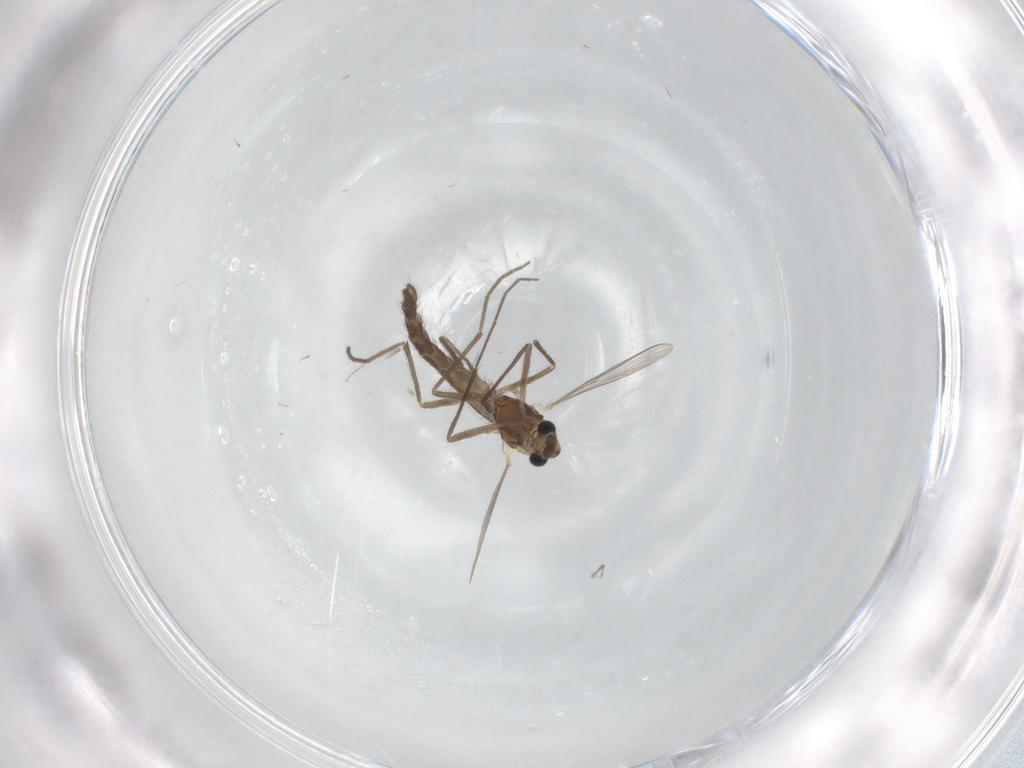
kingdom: Animalia
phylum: Arthropoda
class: Insecta
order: Diptera
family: Chironomidae
